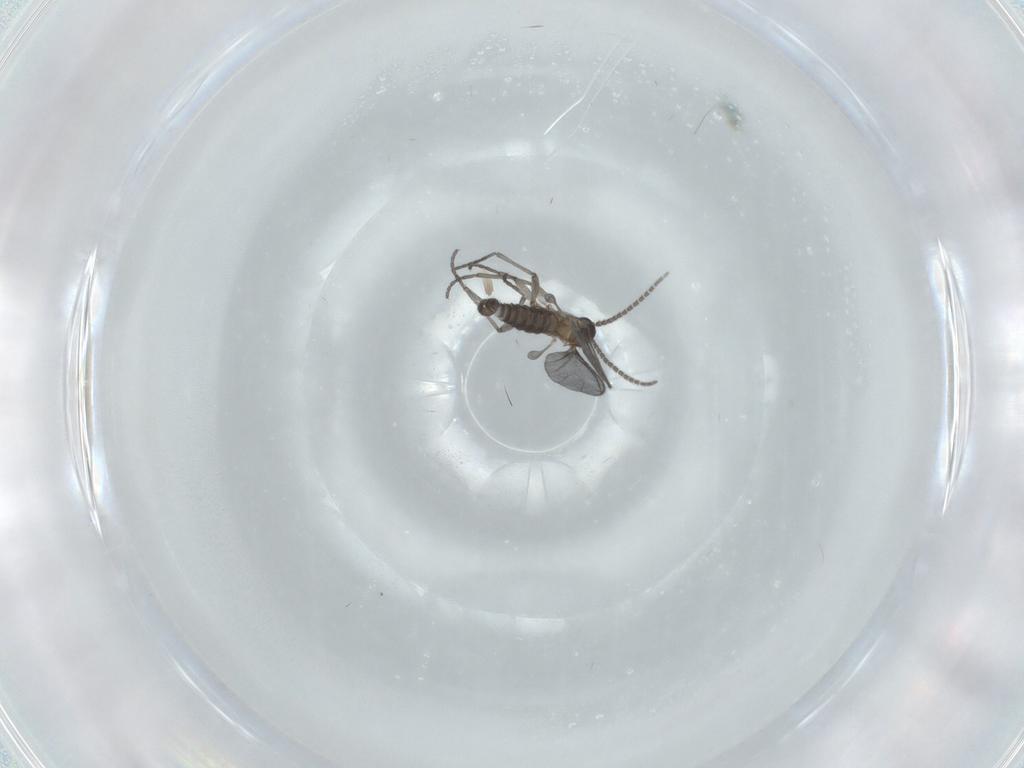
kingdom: Animalia
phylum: Arthropoda
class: Insecta
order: Diptera
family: Sciaridae
